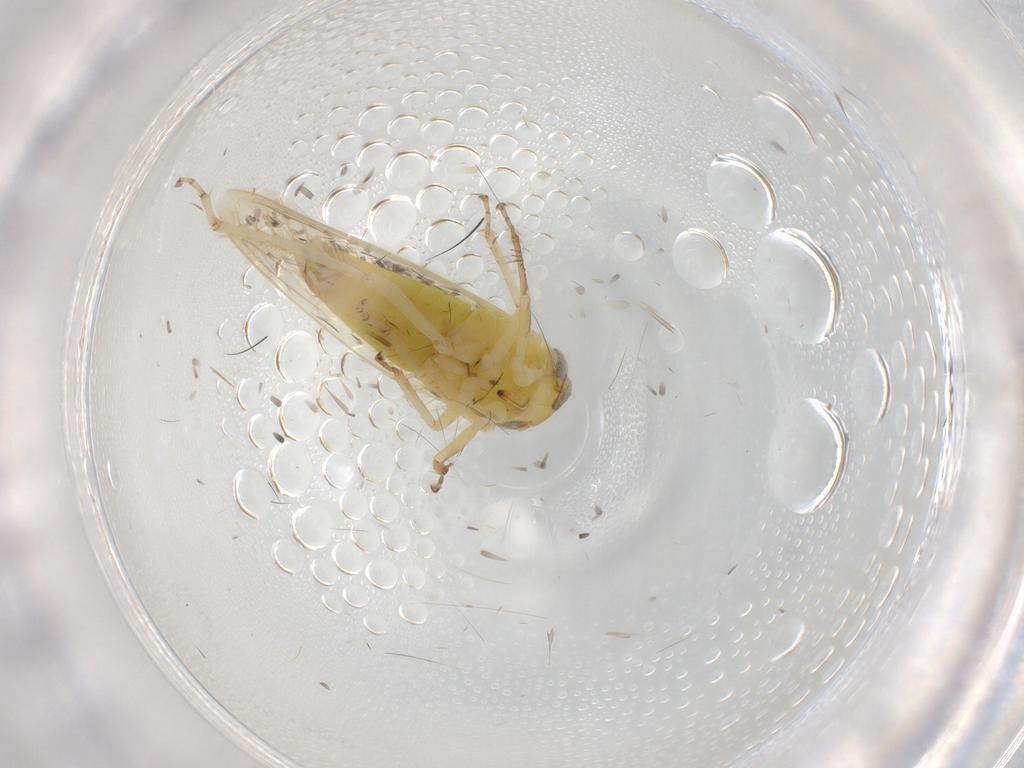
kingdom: Animalia
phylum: Arthropoda
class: Insecta
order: Hemiptera
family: Cicadellidae
